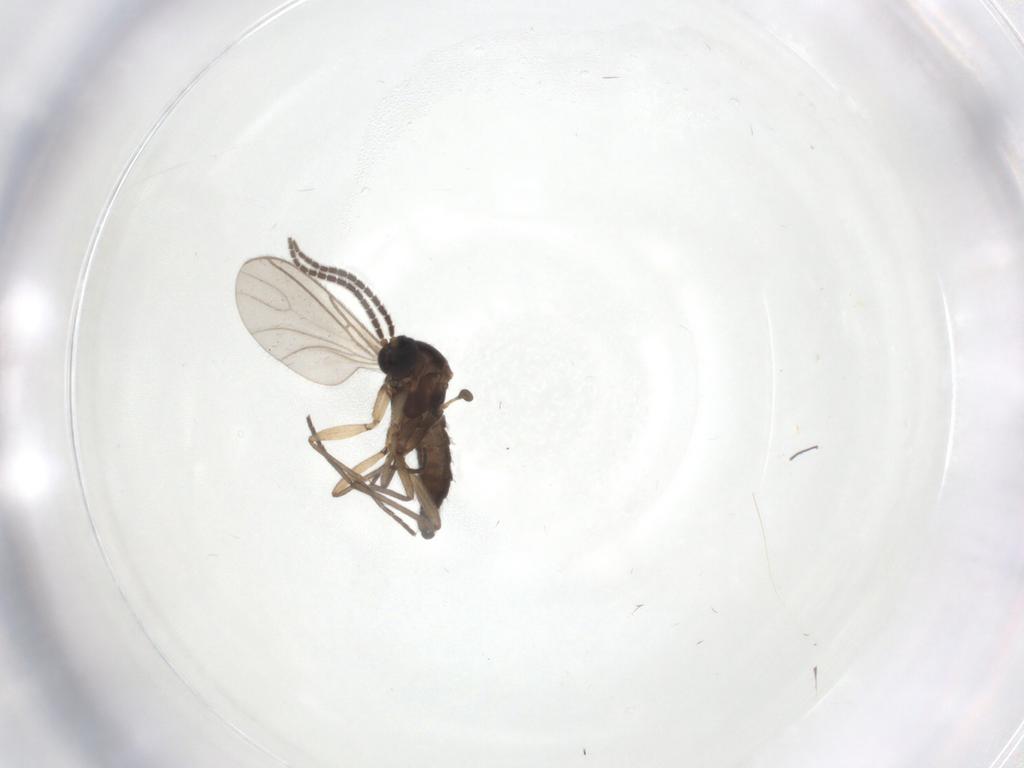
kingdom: Animalia
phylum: Arthropoda
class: Insecta
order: Diptera
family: Sciaridae
